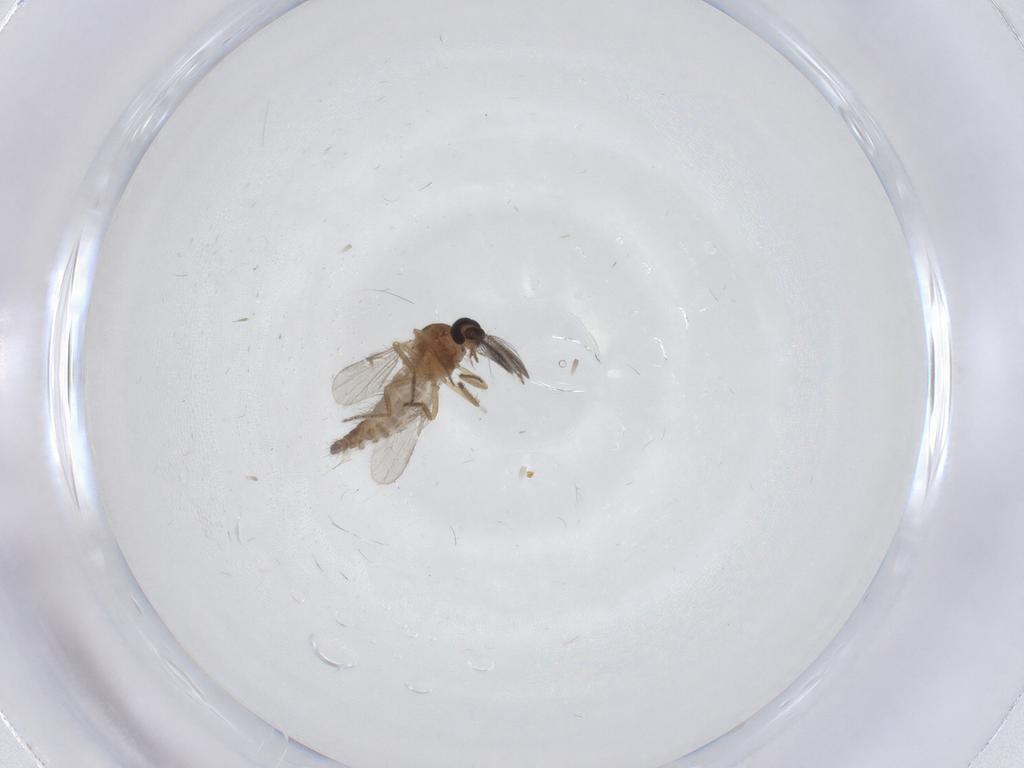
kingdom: Animalia
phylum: Arthropoda
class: Insecta
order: Diptera
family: Ceratopogonidae
